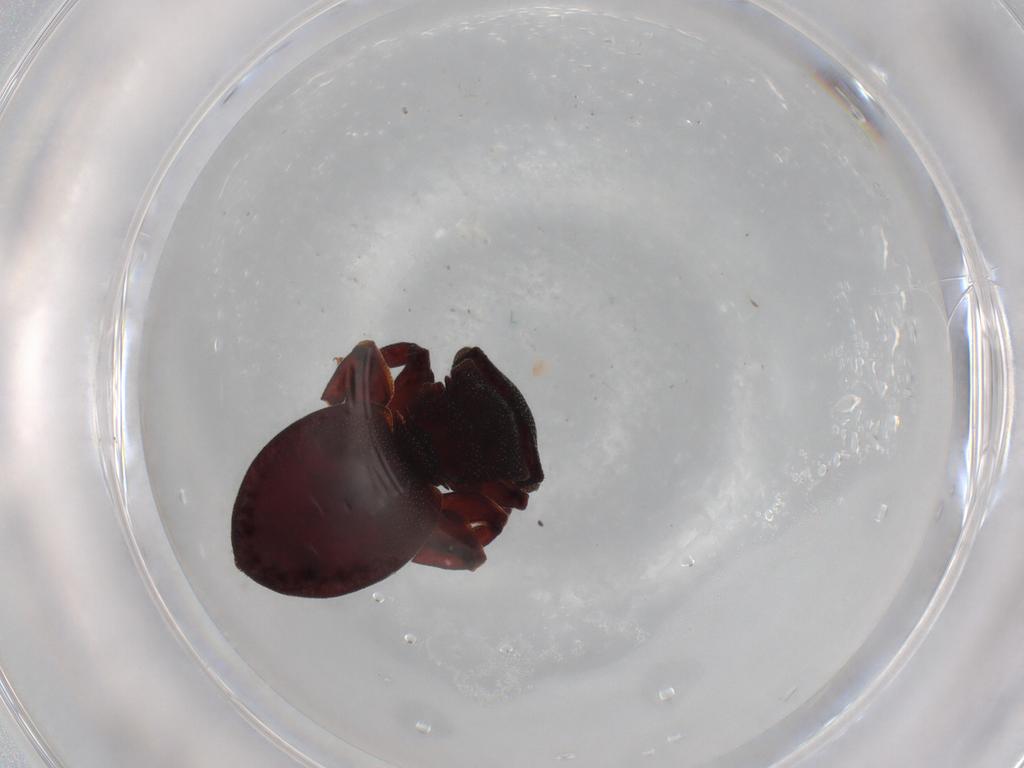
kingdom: Animalia
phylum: Arthropoda
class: Insecta
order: Hymenoptera
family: Formicidae
